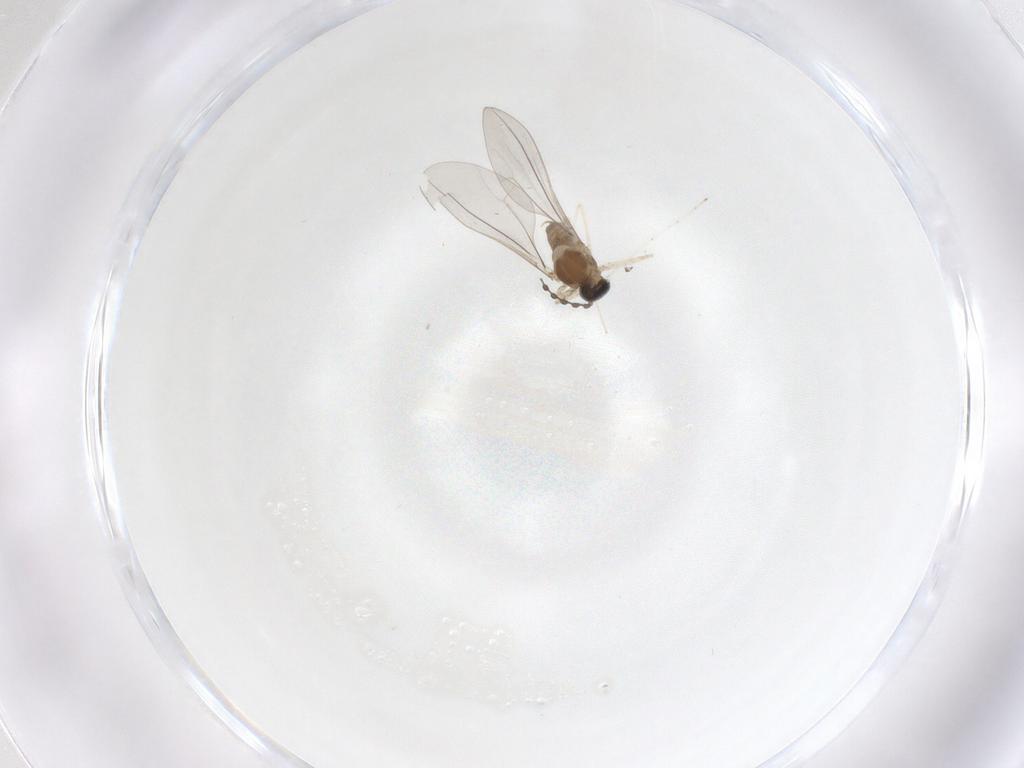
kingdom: Animalia
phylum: Arthropoda
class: Insecta
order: Diptera
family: Cecidomyiidae
